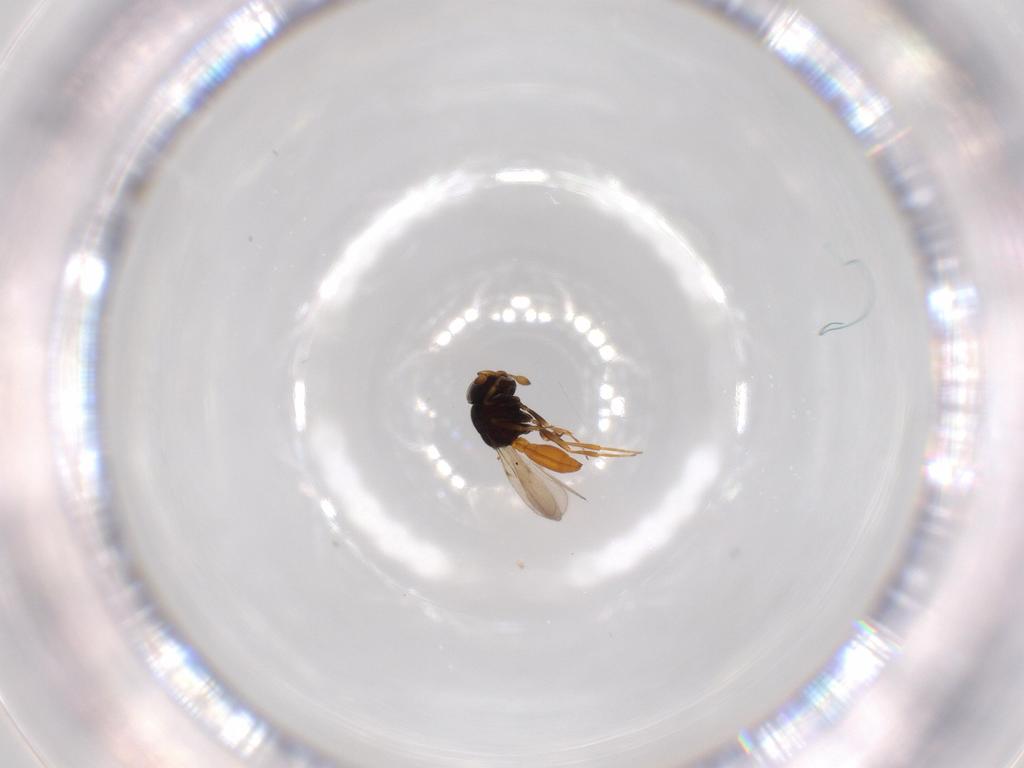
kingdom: Animalia
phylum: Arthropoda
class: Insecta
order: Hymenoptera
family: Scelionidae
